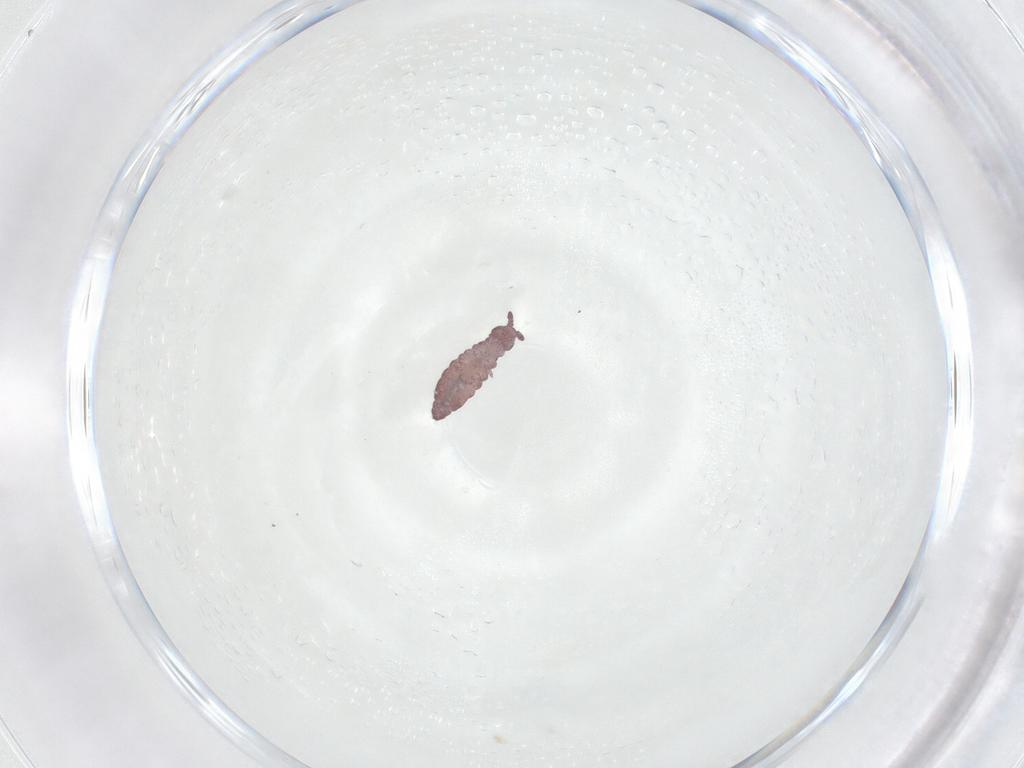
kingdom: Animalia
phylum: Arthropoda
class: Collembola
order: Poduromorpha
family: Hypogastruridae
